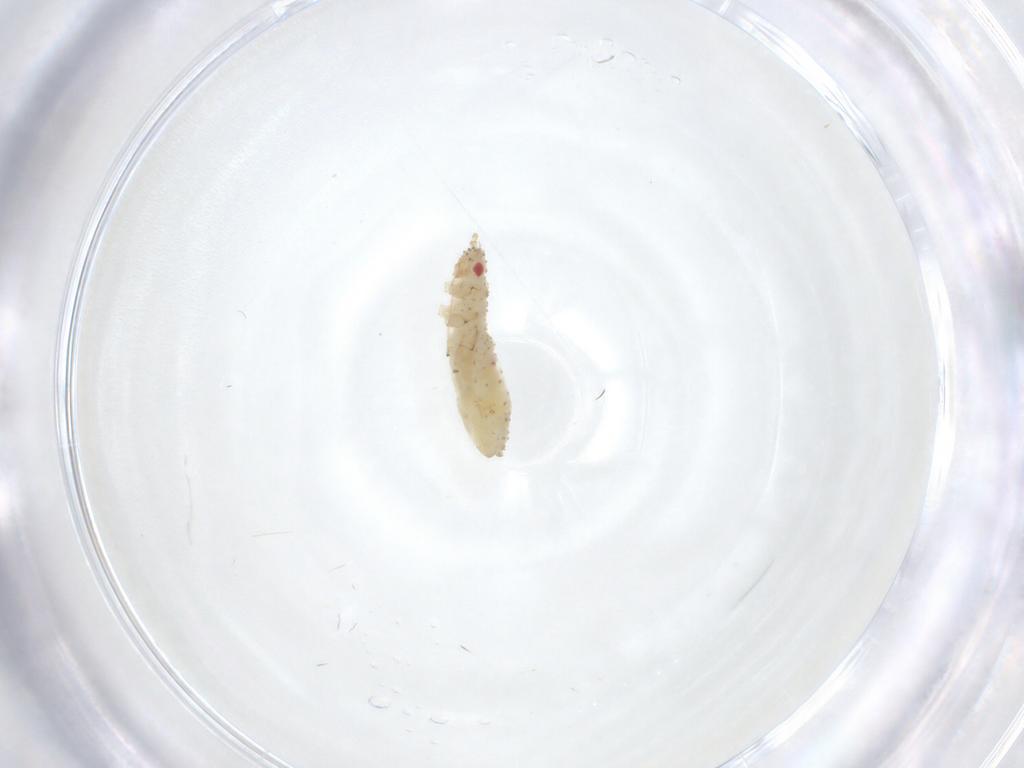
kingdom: Animalia
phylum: Arthropoda
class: Insecta
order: Hemiptera
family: Aphididae
